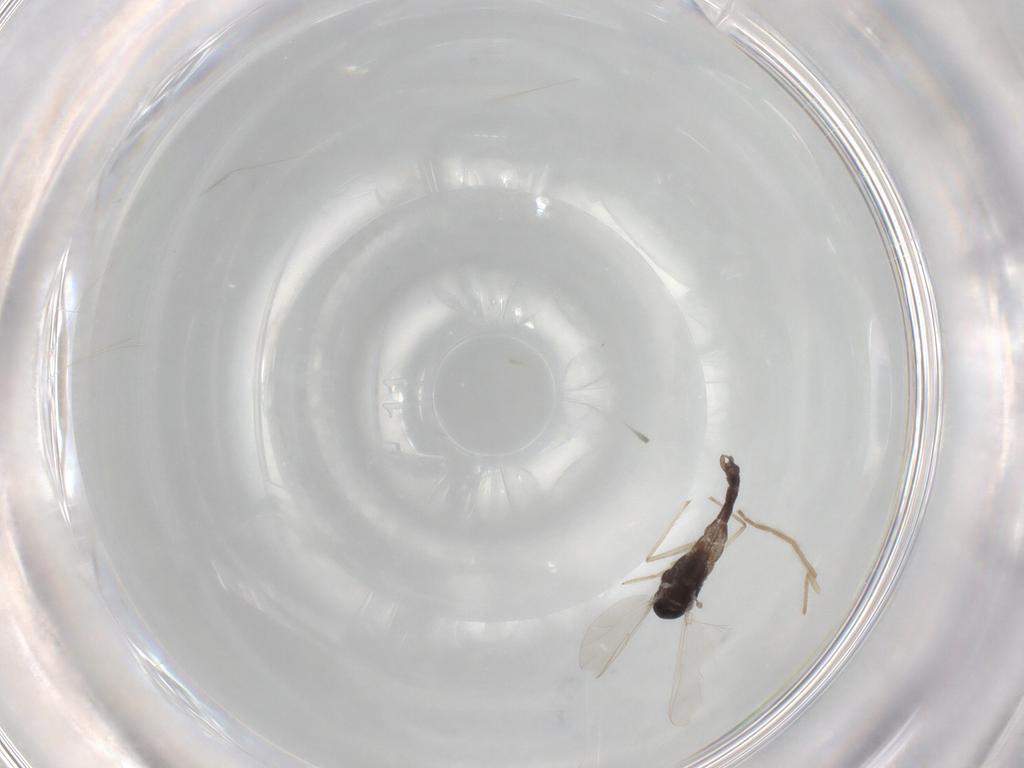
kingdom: Animalia
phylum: Arthropoda
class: Insecta
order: Diptera
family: Chironomidae
